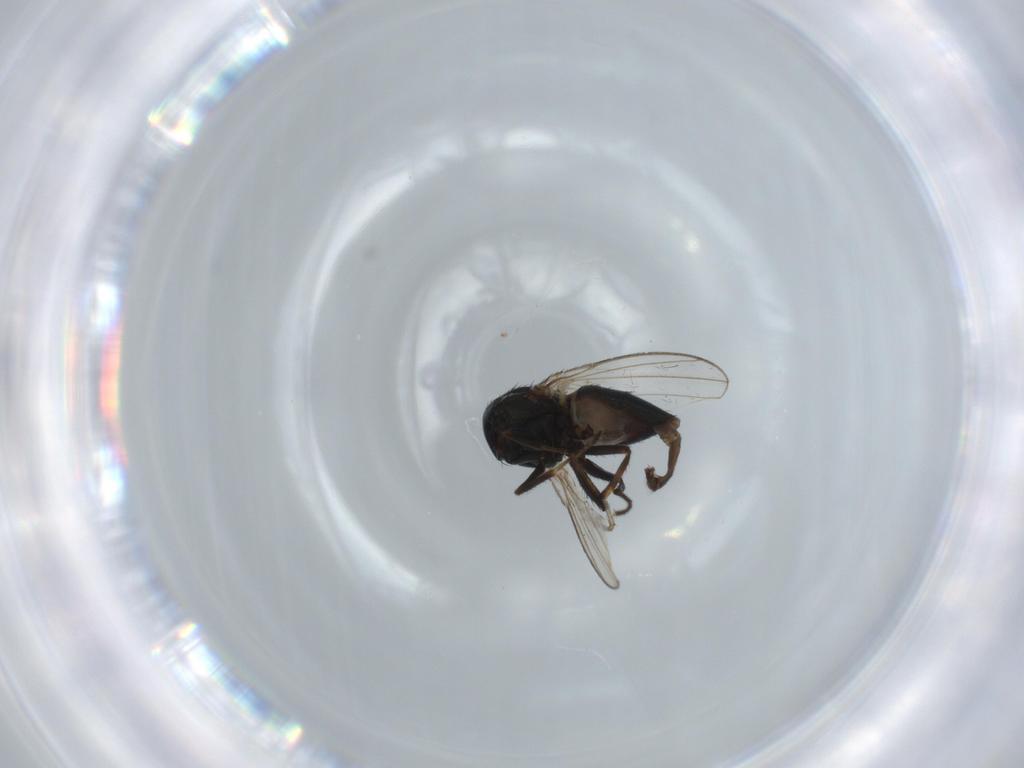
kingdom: Animalia
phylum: Arthropoda
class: Insecta
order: Diptera
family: Ephydridae
